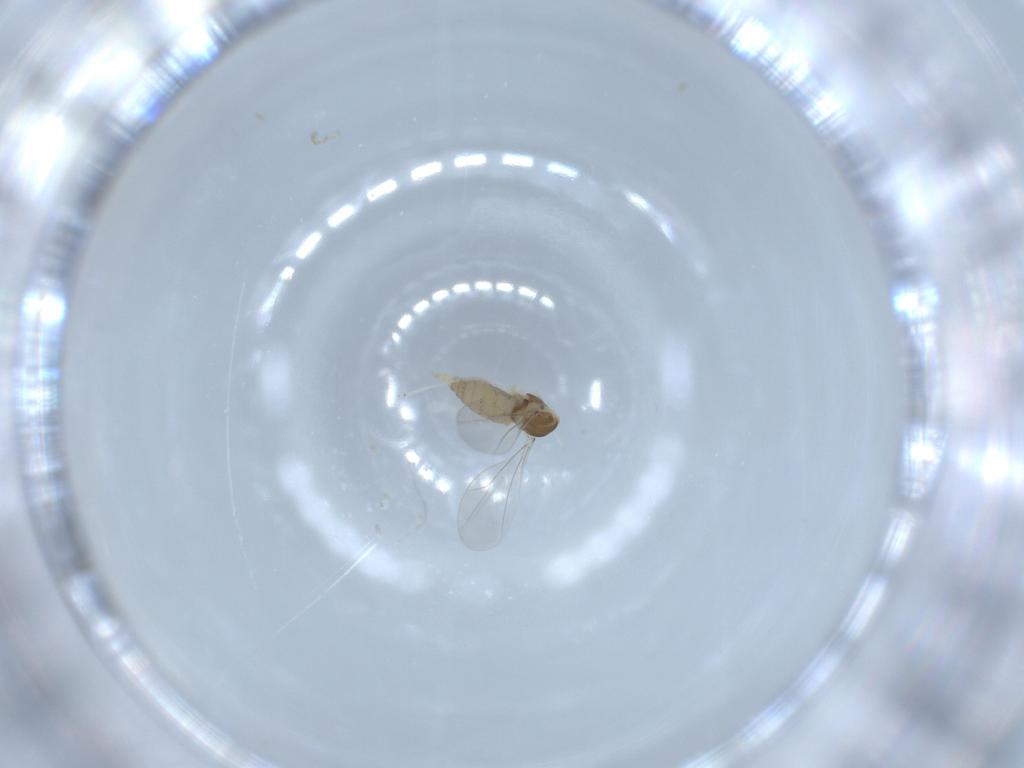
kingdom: Animalia
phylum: Arthropoda
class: Insecta
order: Diptera
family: Cecidomyiidae
